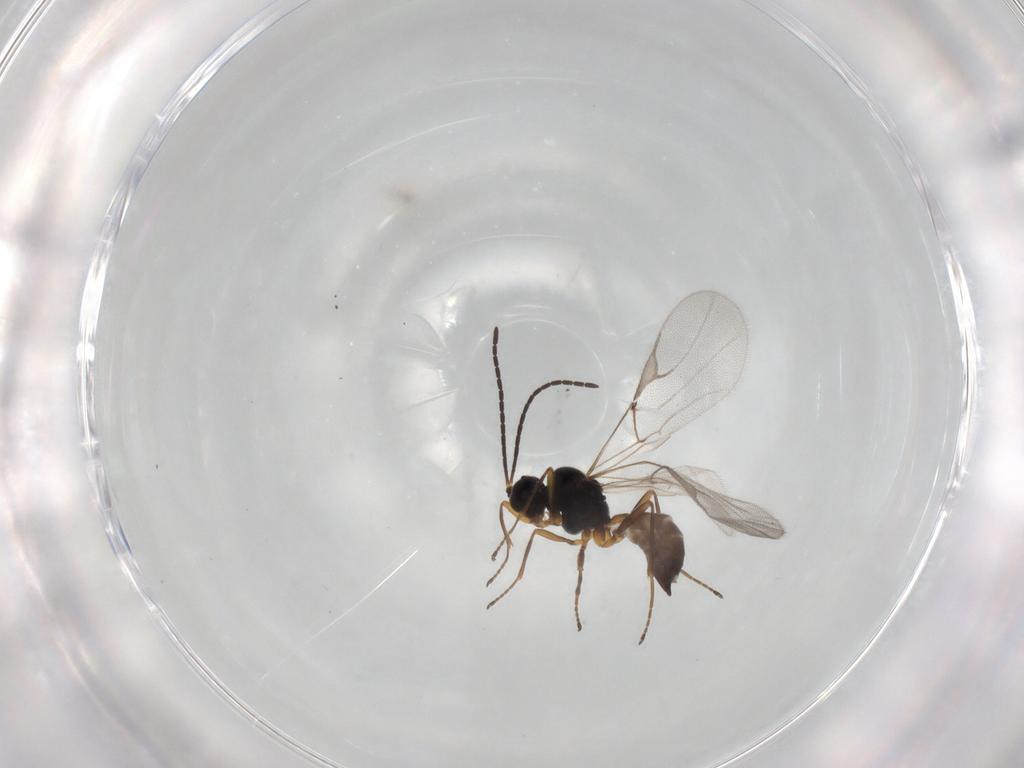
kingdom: Animalia
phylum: Arthropoda
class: Insecta
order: Hymenoptera
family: Braconidae
